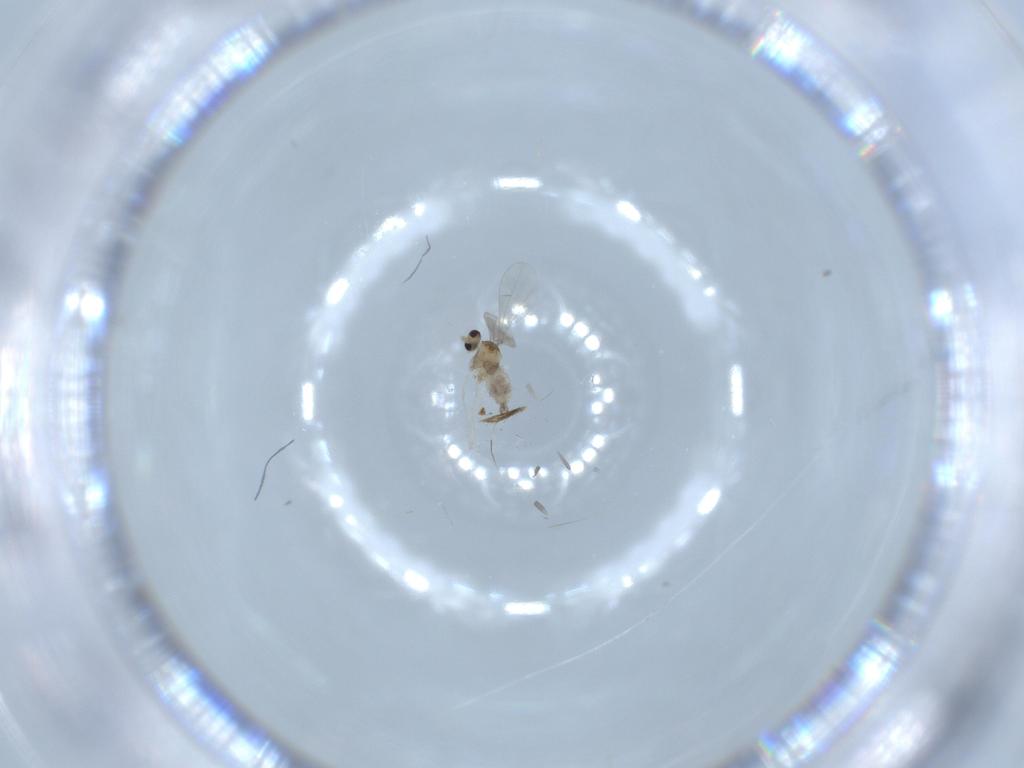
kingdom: Animalia
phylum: Arthropoda
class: Insecta
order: Diptera
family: Cecidomyiidae
